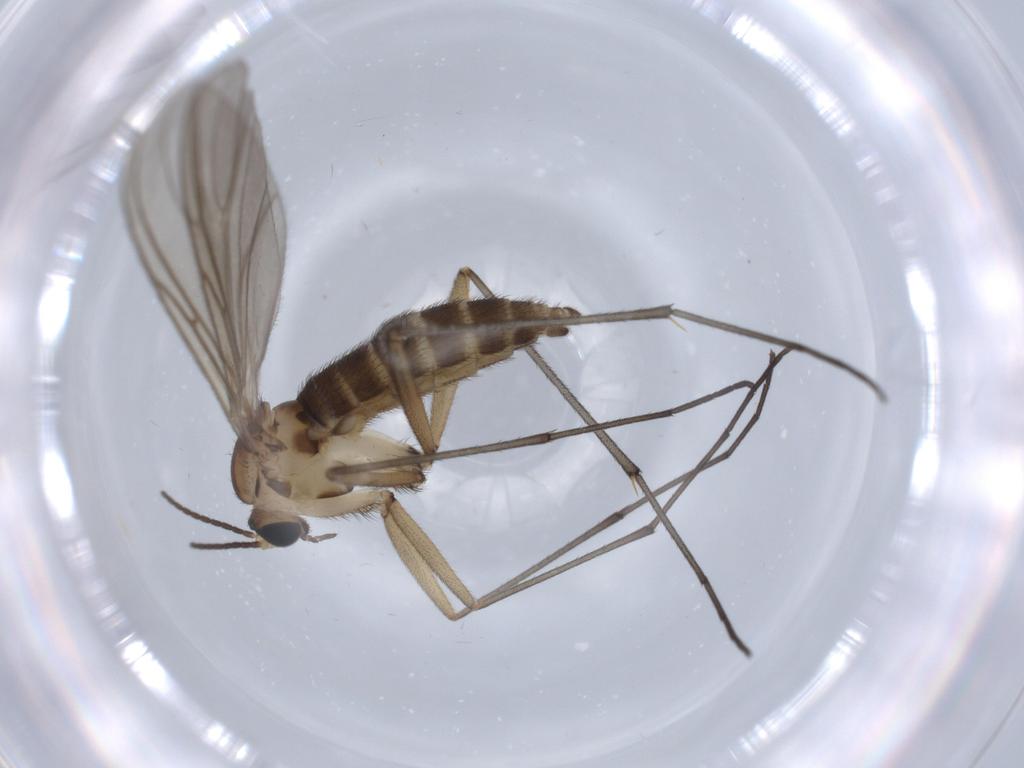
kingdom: Animalia
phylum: Arthropoda
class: Insecta
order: Diptera
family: Sciaridae
